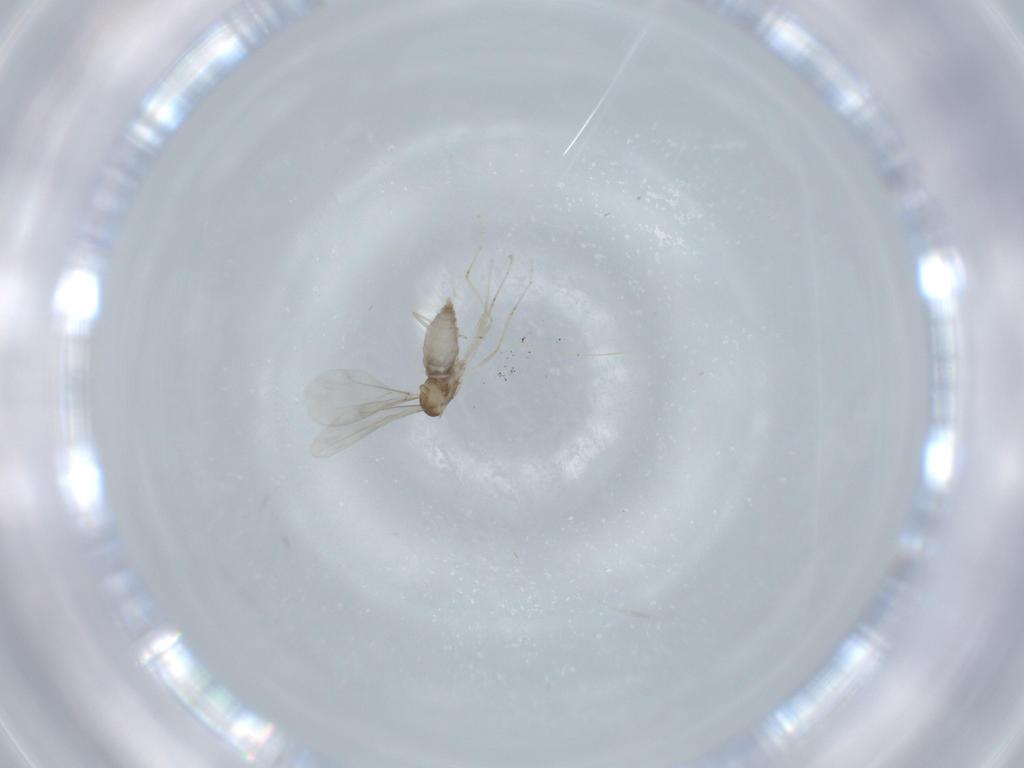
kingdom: Animalia
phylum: Arthropoda
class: Insecta
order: Diptera
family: Cecidomyiidae
